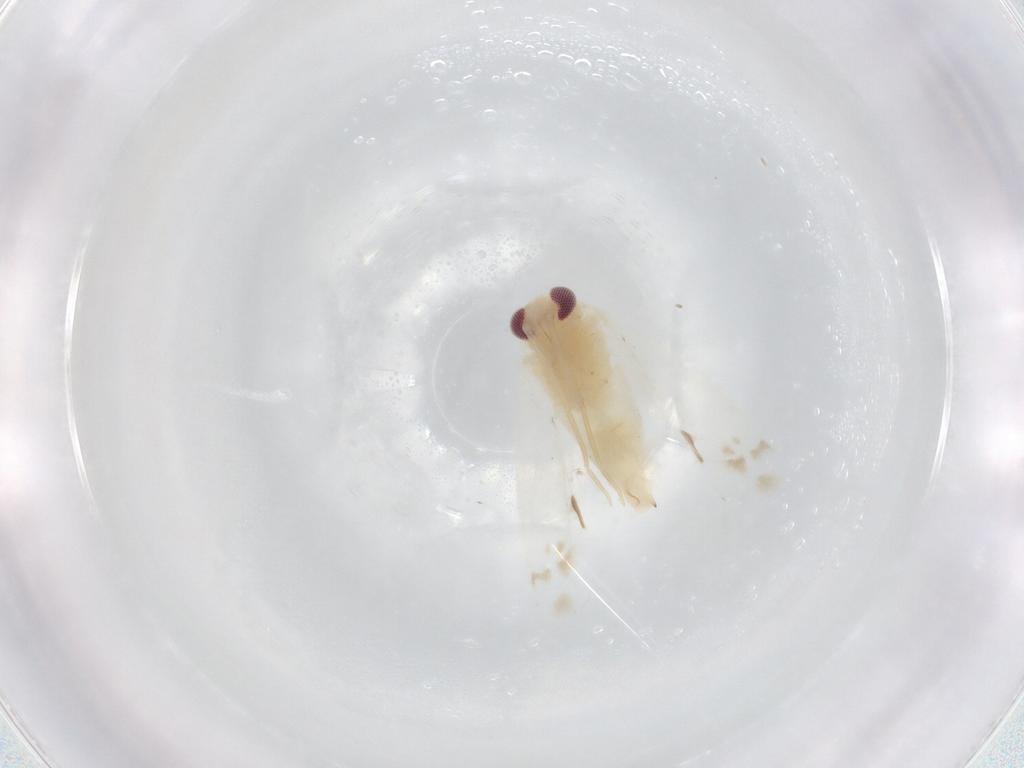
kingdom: Animalia
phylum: Arthropoda
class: Insecta
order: Hemiptera
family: Miridae
